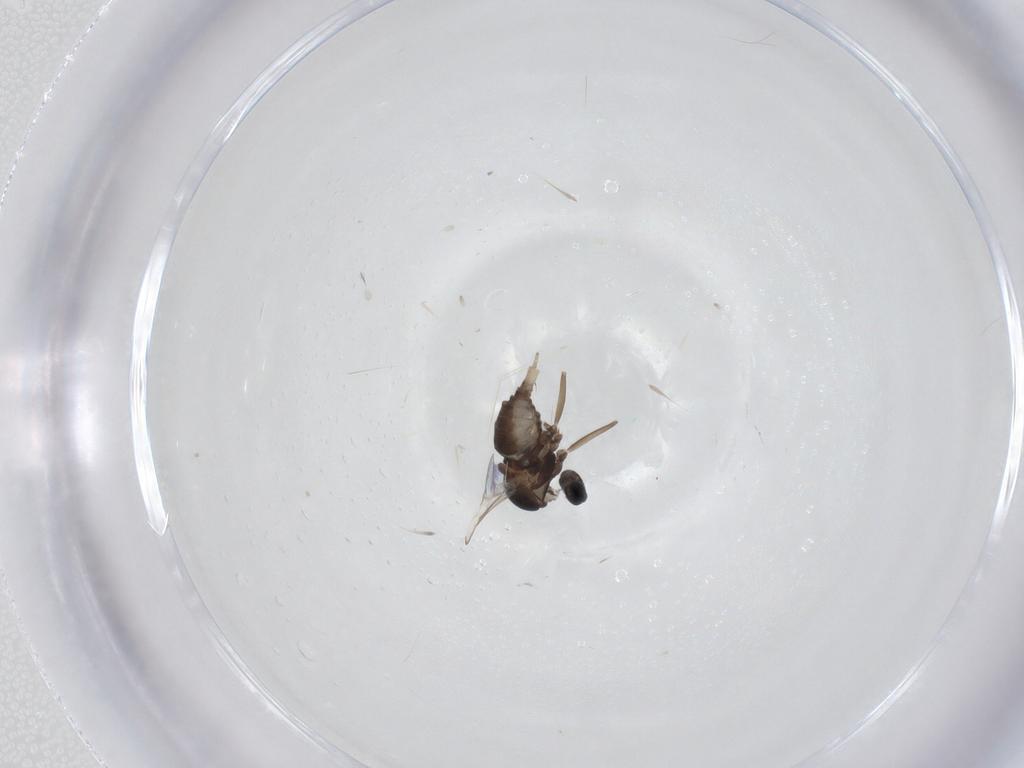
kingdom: Animalia
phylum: Arthropoda
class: Insecta
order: Diptera
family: Cecidomyiidae
